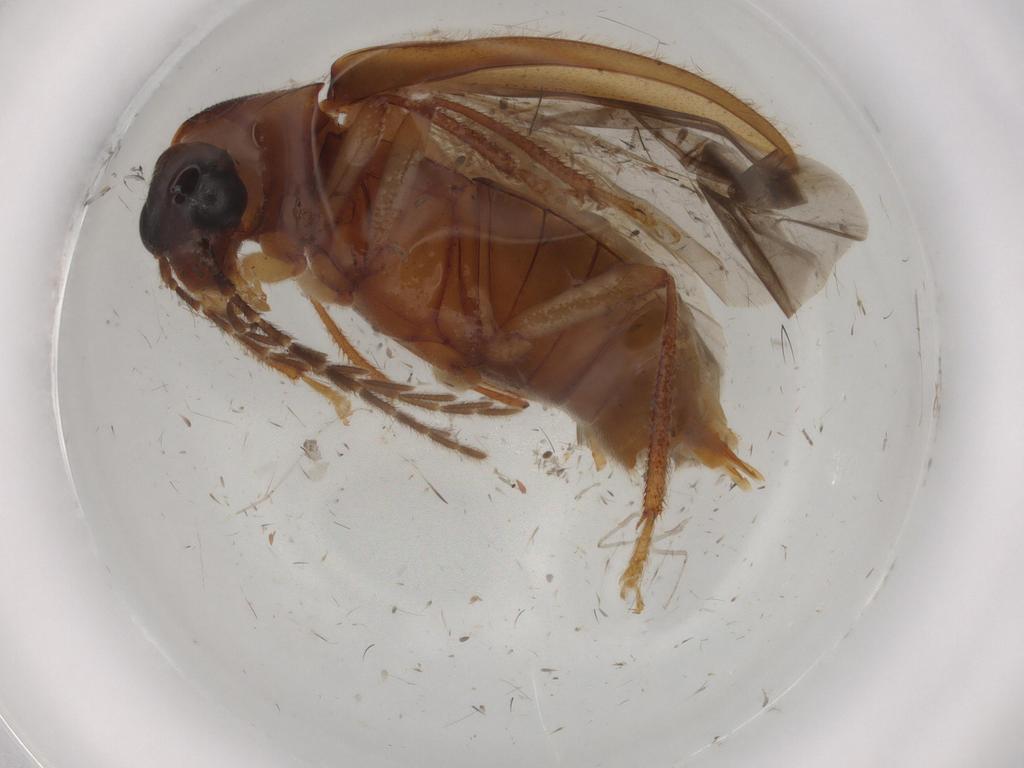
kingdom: Animalia
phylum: Arthropoda
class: Insecta
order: Coleoptera
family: Ptilodactylidae
